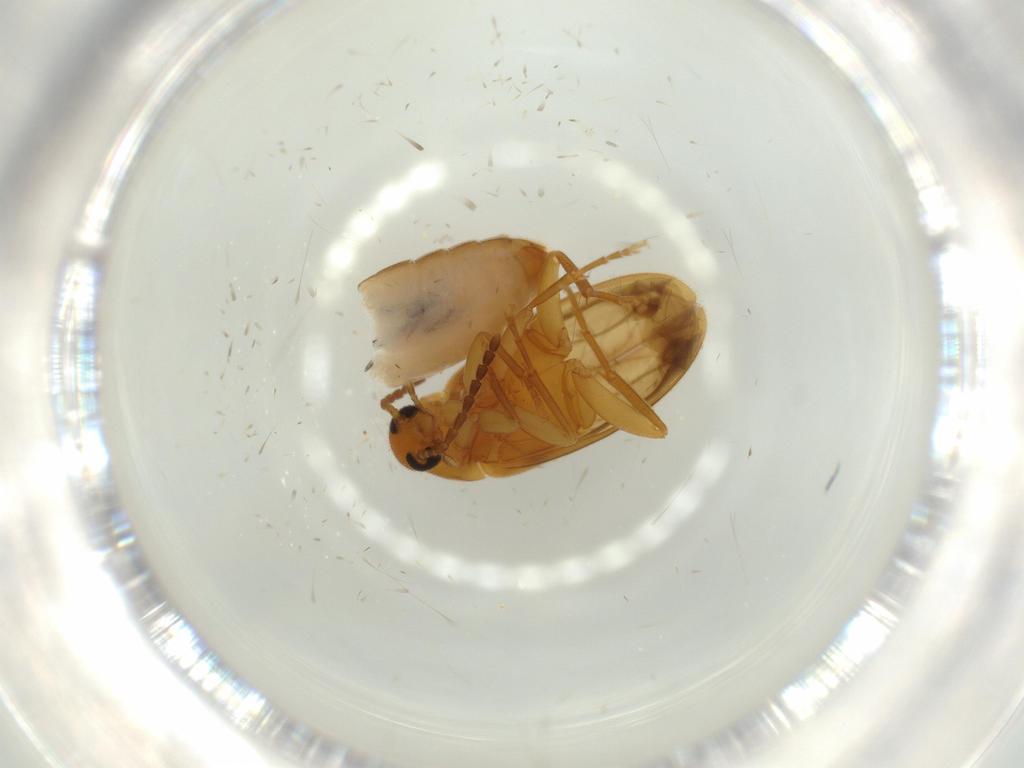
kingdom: Animalia
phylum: Arthropoda
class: Insecta
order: Coleoptera
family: Scraptiidae
